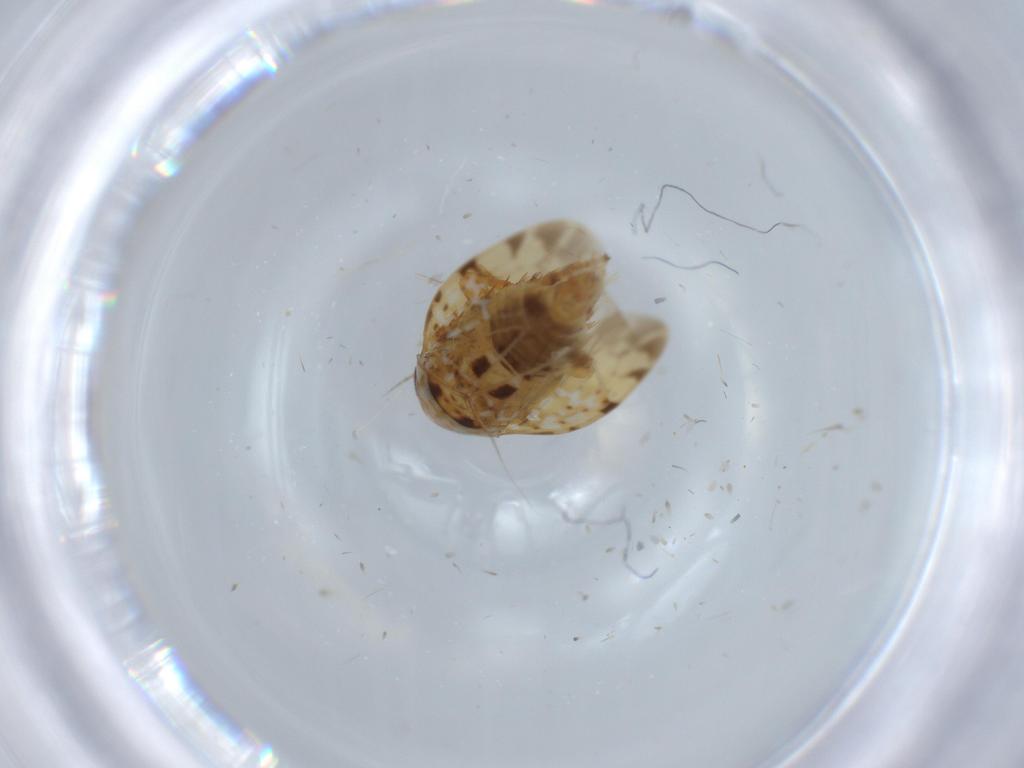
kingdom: Animalia
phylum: Arthropoda
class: Insecta
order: Hemiptera
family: Cicadellidae
